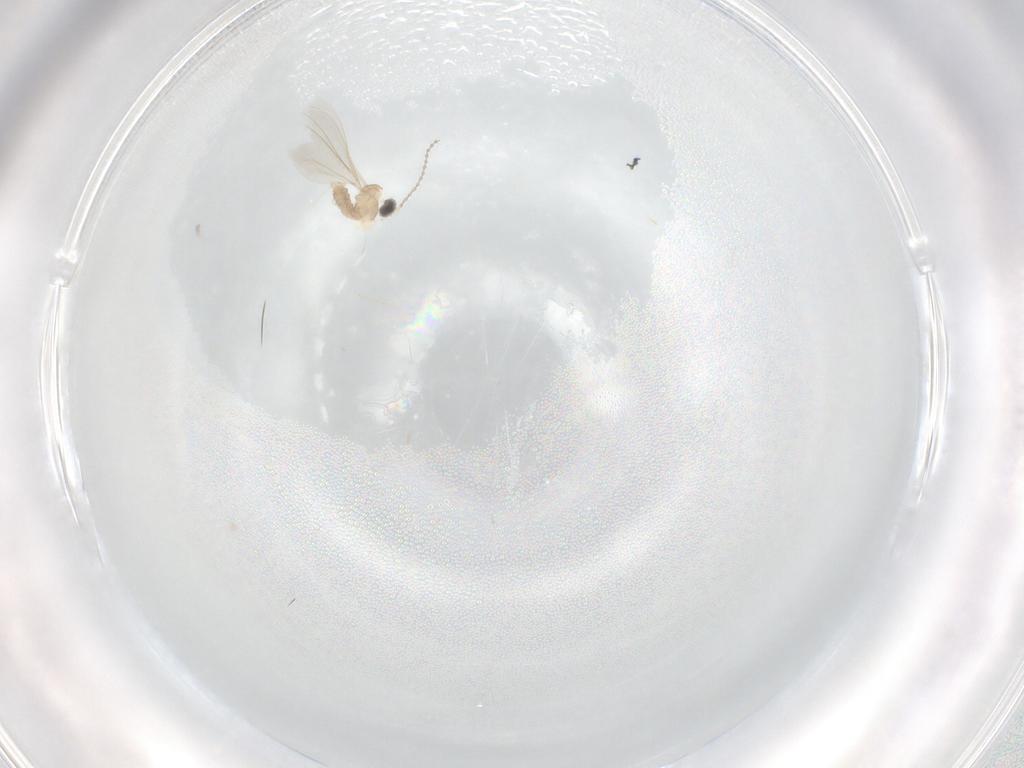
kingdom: Animalia
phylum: Arthropoda
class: Insecta
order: Diptera
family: Cecidomyiidae
